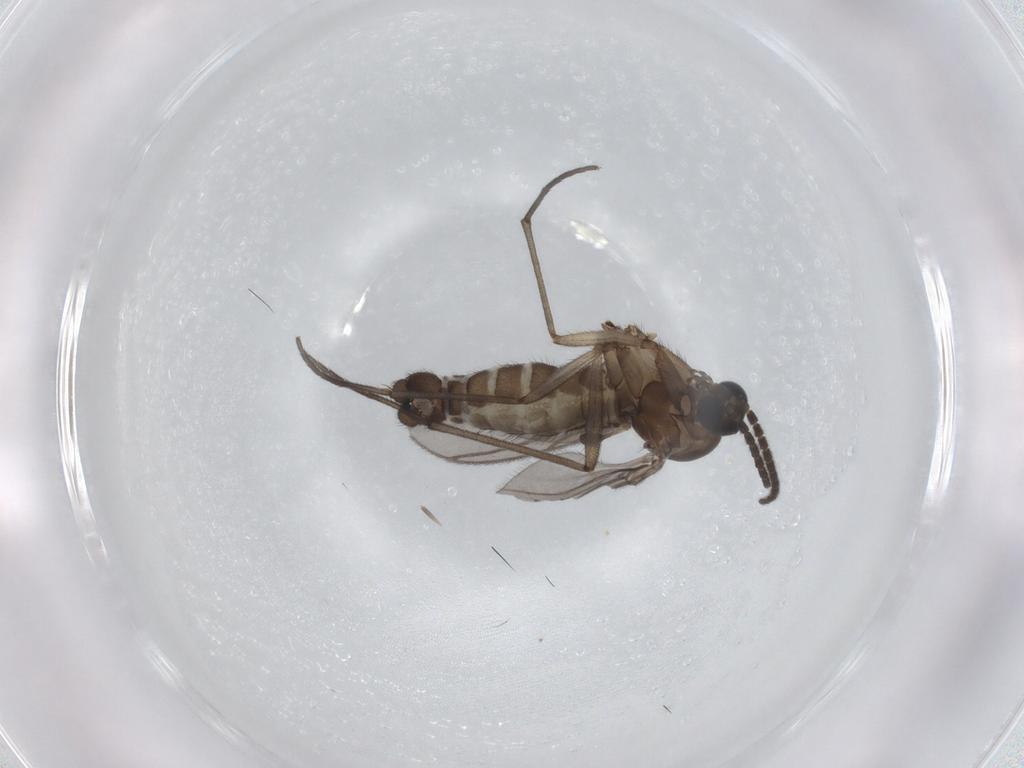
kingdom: Animalia
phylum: Arthropoda
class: Insecta
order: Diptera
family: Sciaridae
